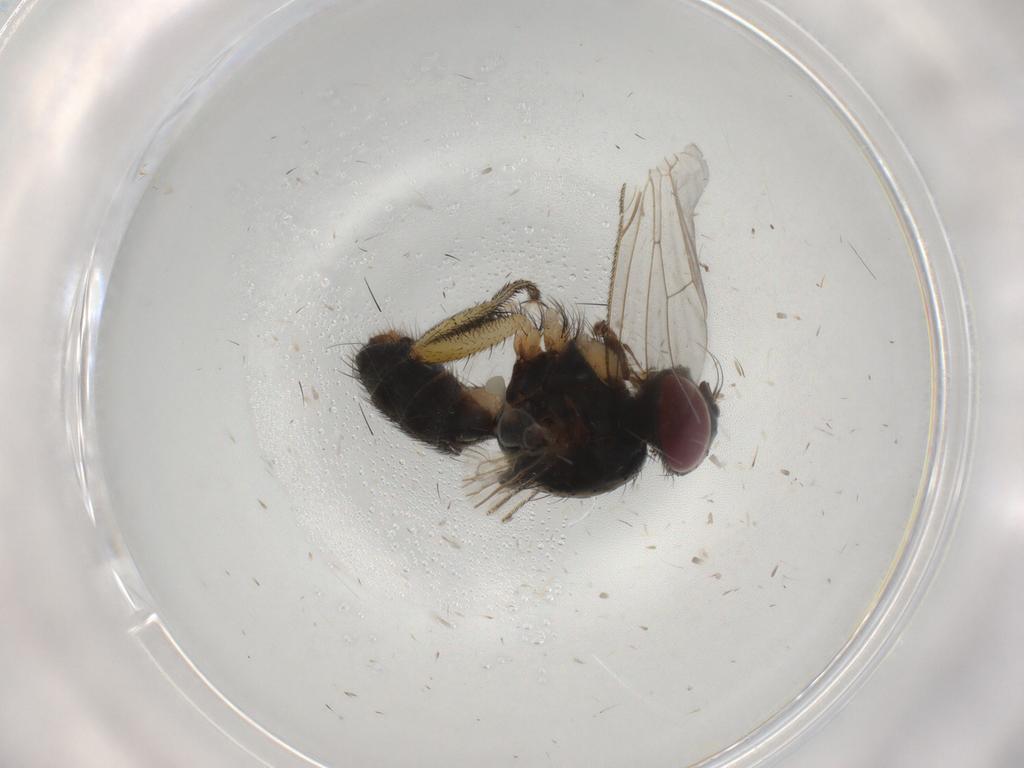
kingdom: Animalia
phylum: Arthropoda
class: Insecta
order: Diptera
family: Muscidae
